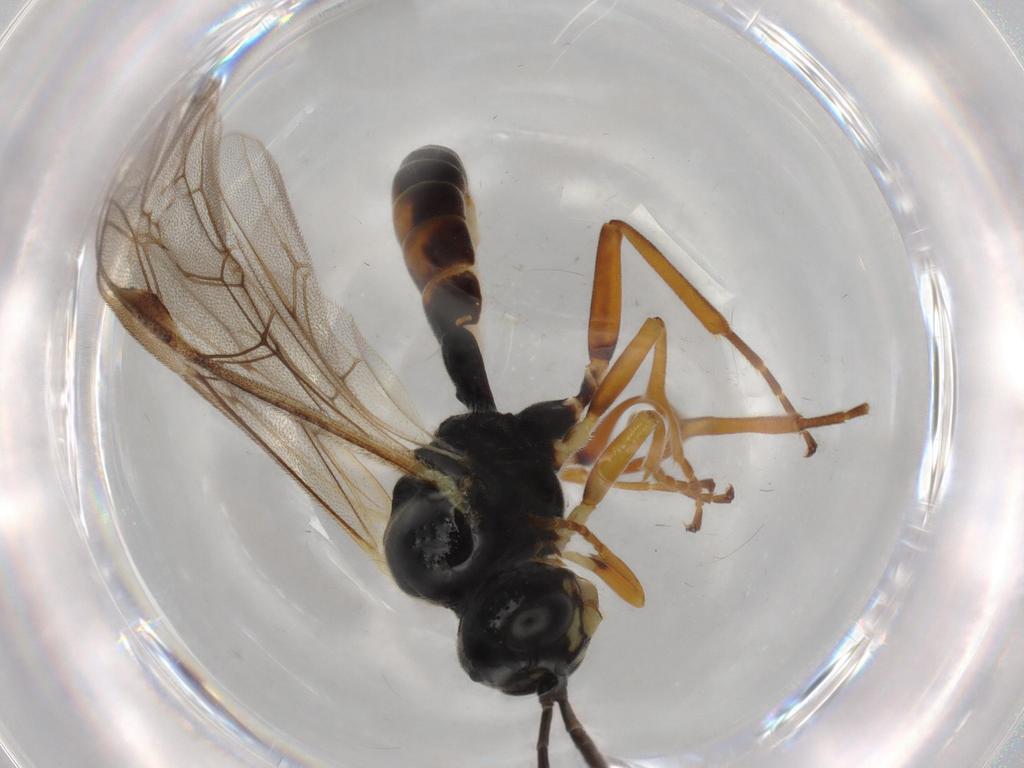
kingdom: Animalia
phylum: Arthropoda
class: Insecta
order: Hymenoptera
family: Ichneumonidae
